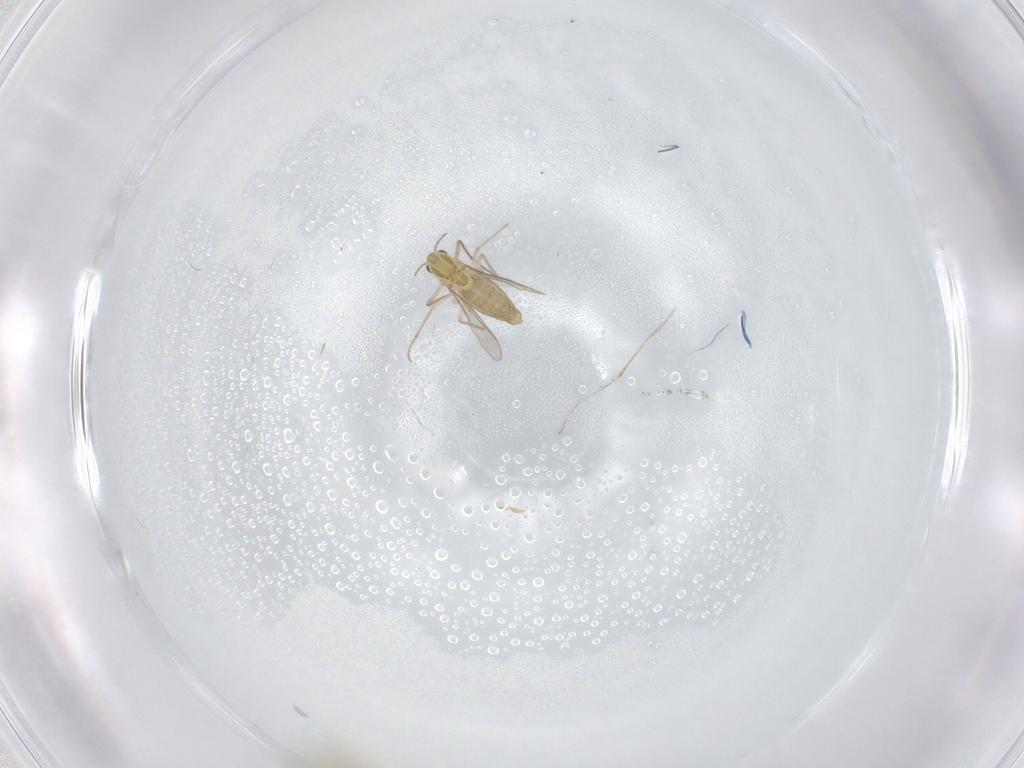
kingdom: Animalia
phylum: Arthropoda
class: Insecta
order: Diptera
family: Chironomidae
